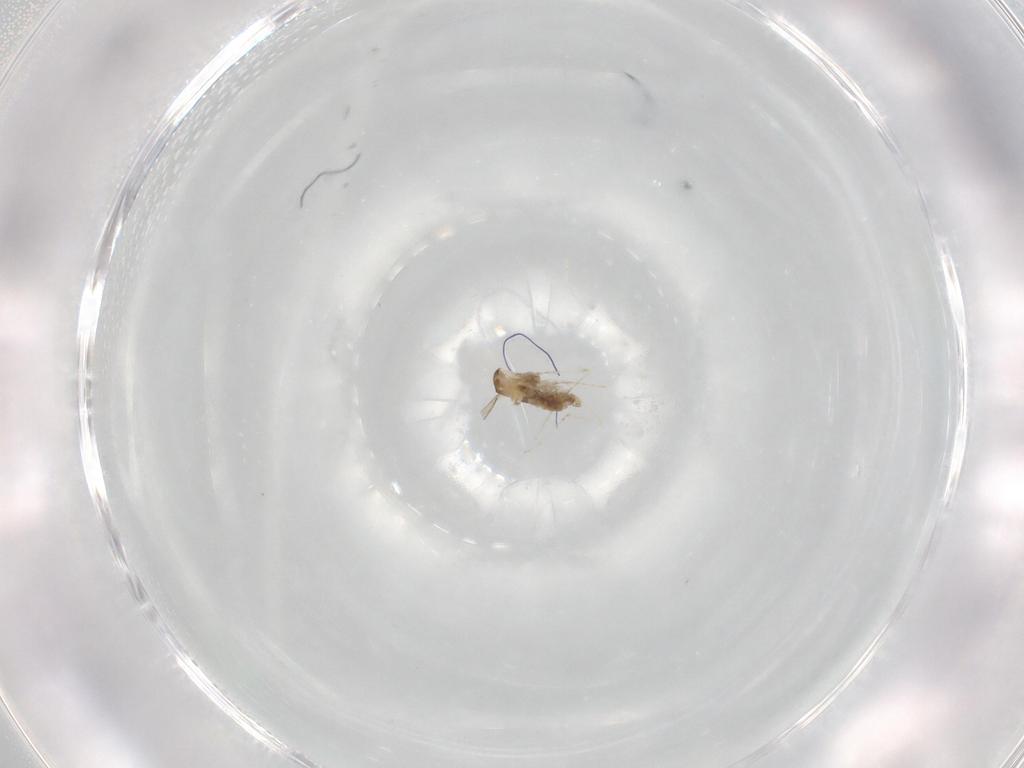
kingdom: Animalia
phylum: Arthropoda
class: Insecta
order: Diptera
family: Cecidomyiidae
